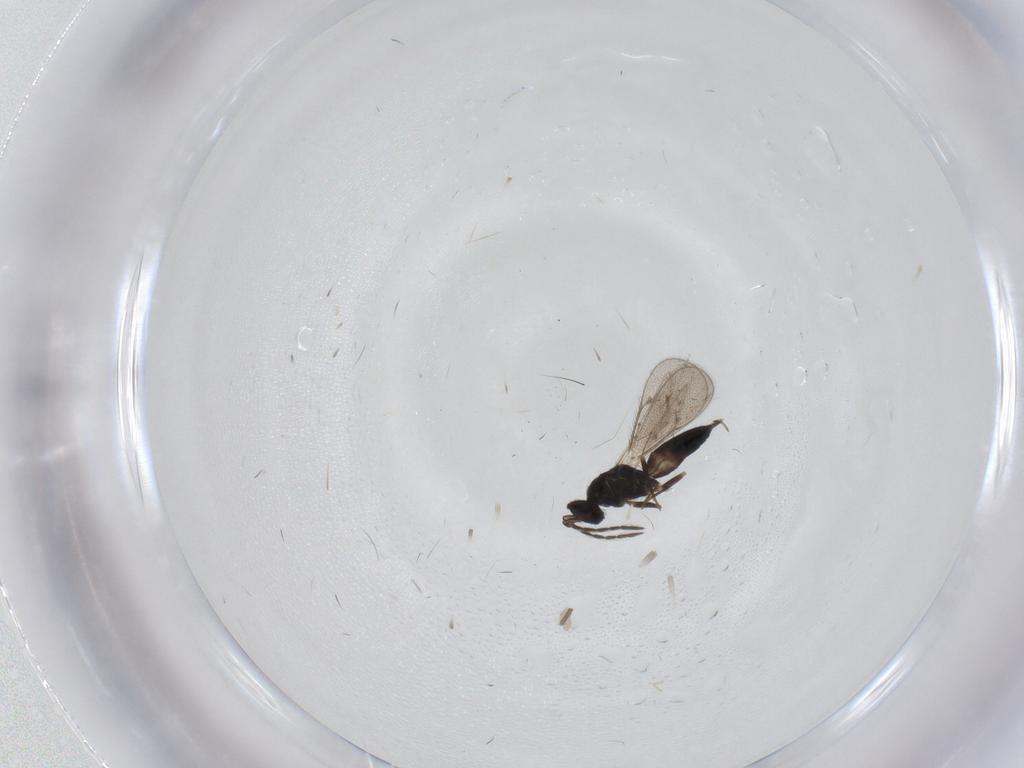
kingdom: Animalia
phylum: Arthropoda
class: Insecta
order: Hymenoptera
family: Eulophidae
